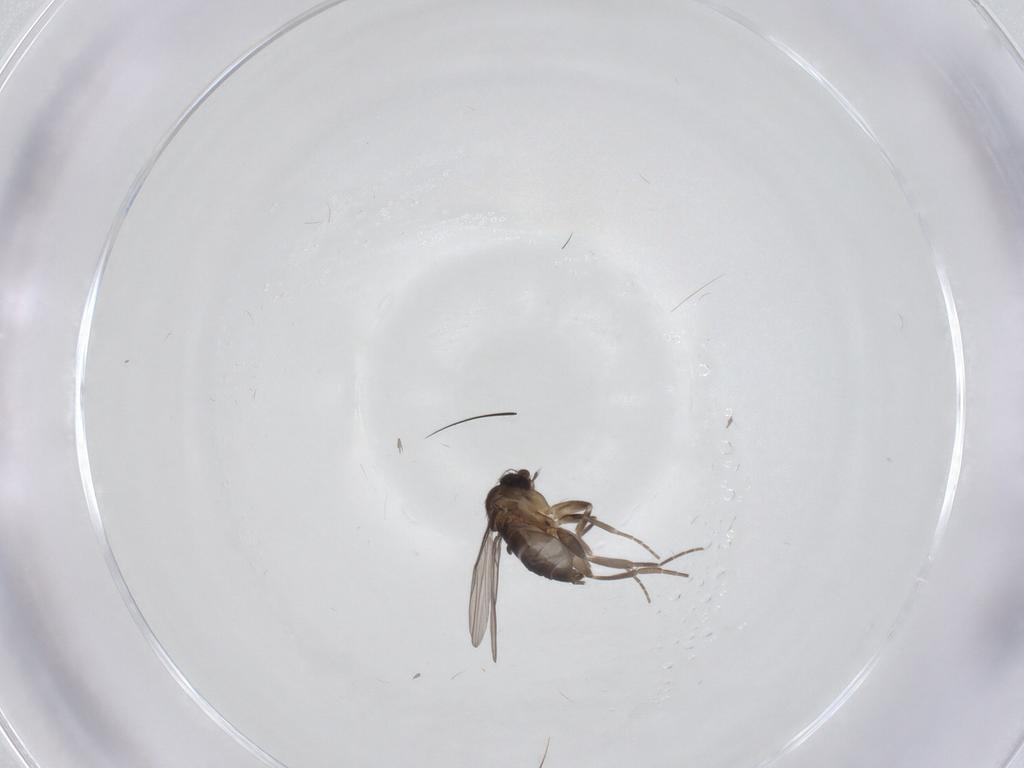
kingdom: Animalia
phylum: Arthropoda
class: Insecta
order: Diptera
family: Phoridae
